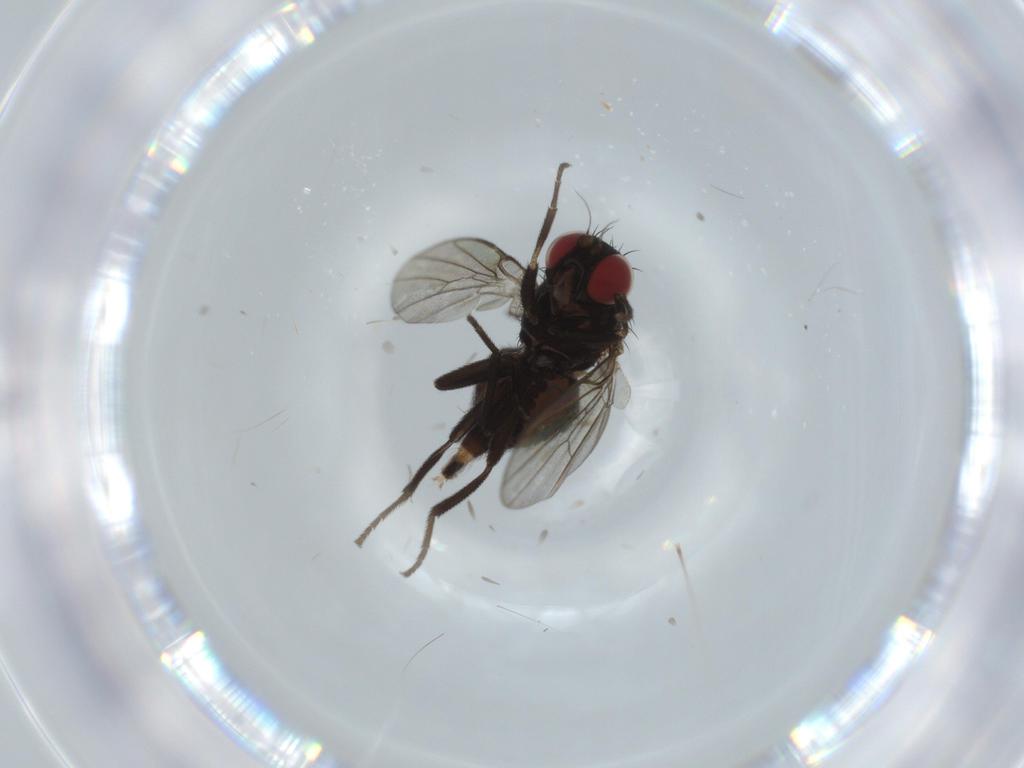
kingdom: Animalia
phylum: Arthropoda
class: Insecta
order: Diptera
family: Agromyzidae
